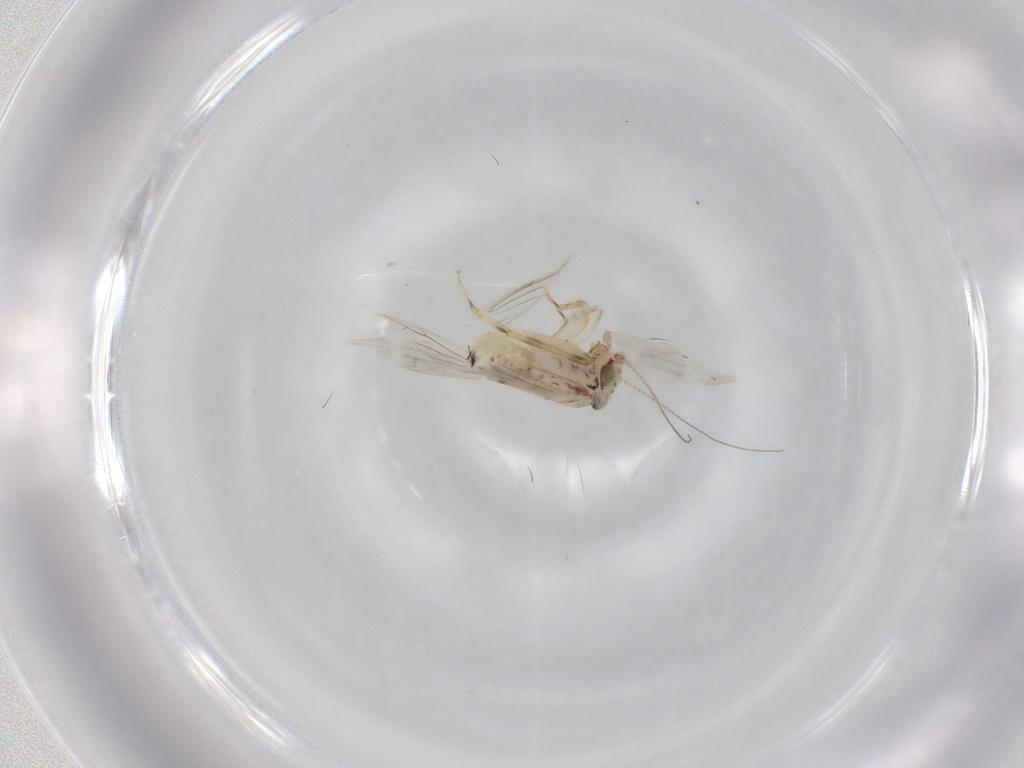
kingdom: Animalia
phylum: Arthropoda
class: Insecta
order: Psocodea
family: Lepidopsocidae
